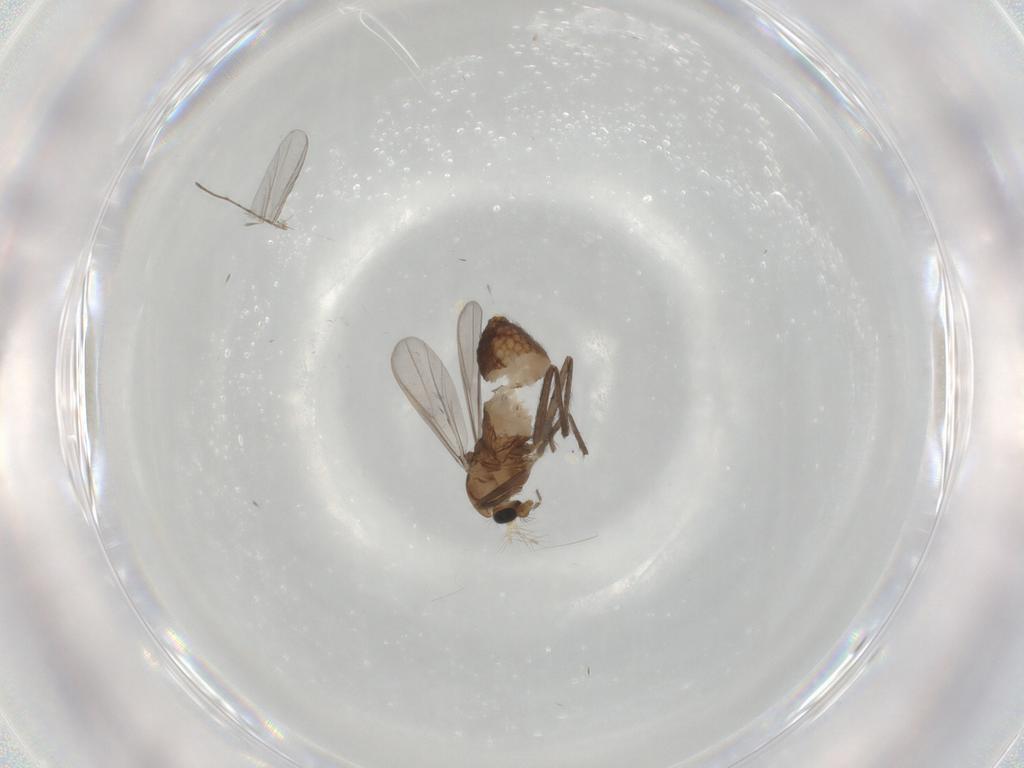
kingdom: Animalia
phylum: Arthropoda
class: Insecta
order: Diptera
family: Chironomidae
